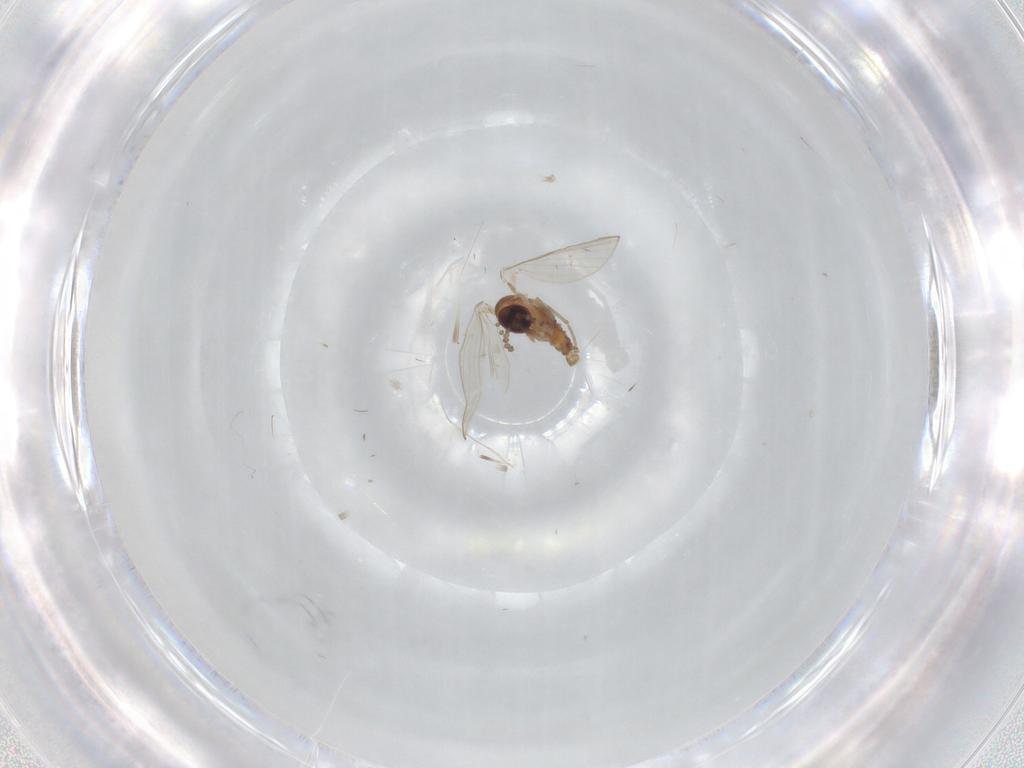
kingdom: Animalia
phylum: Arthropoda
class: Insecta
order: Diptera
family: Psychodidae
